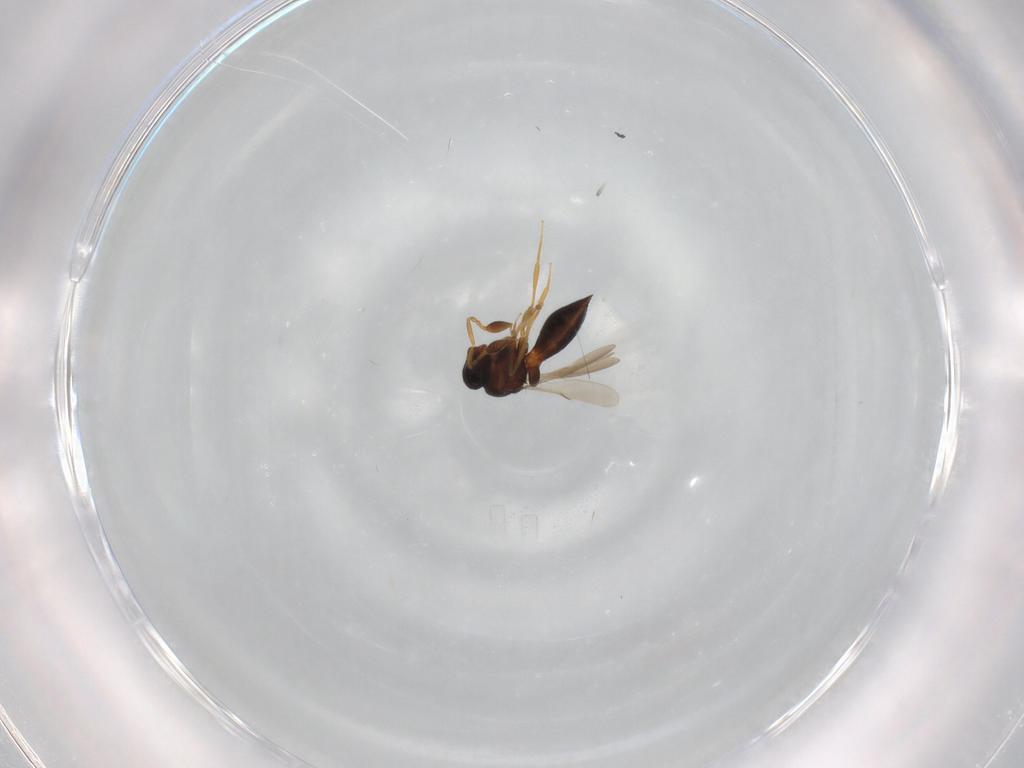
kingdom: Animalia
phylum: Arthropoda
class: Insecta
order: Hymenoptera
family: Scelionidae
